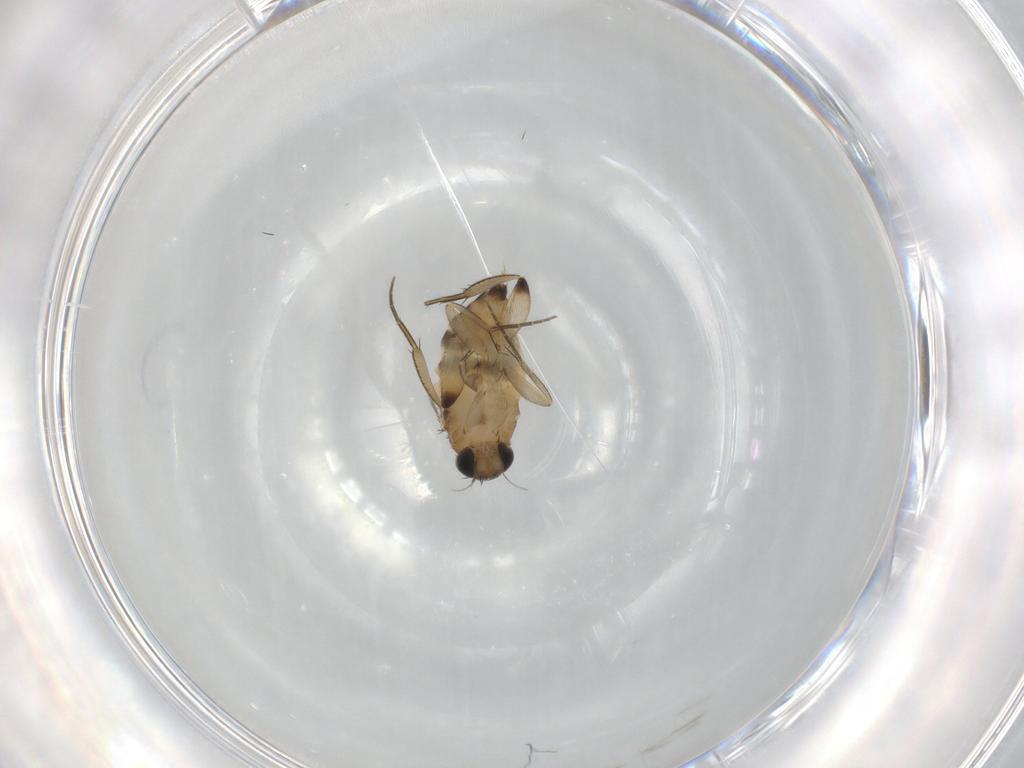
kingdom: Animalia
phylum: Arthropoda
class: Insecta
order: Diptera
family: Phoridae
